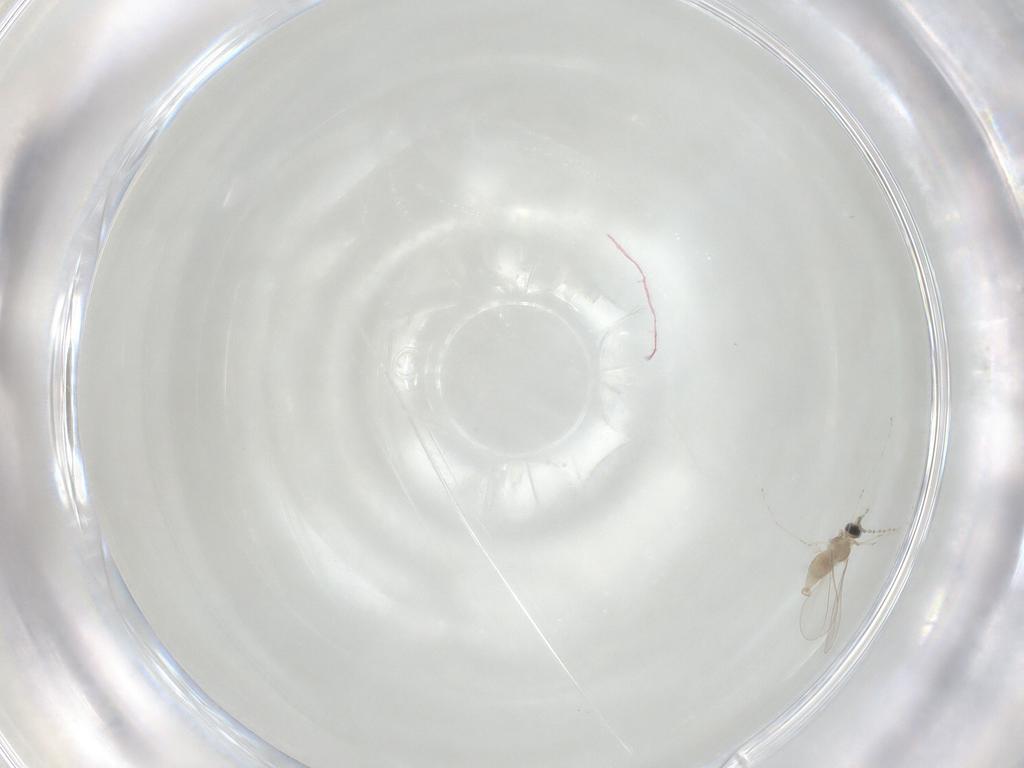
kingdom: Animalia
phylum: Arthropoda
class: Insecta
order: Diptera
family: Cecidomyiidae
